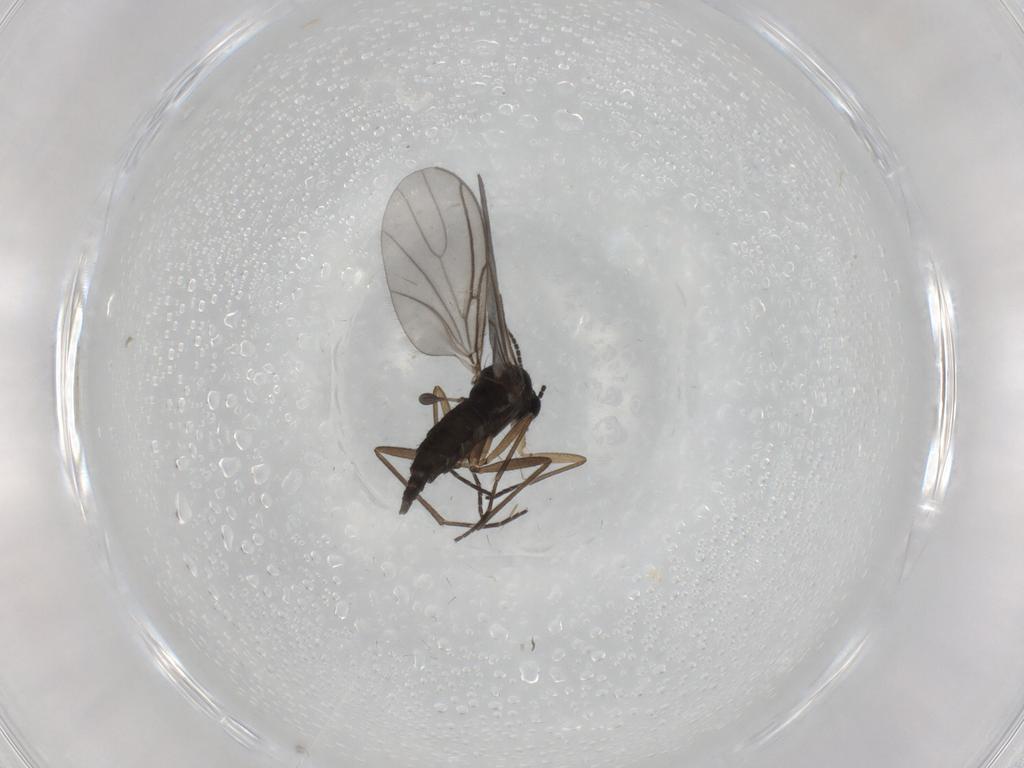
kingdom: Animalia
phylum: Arthropoda
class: Insecta
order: Diptera
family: Sciaridae
